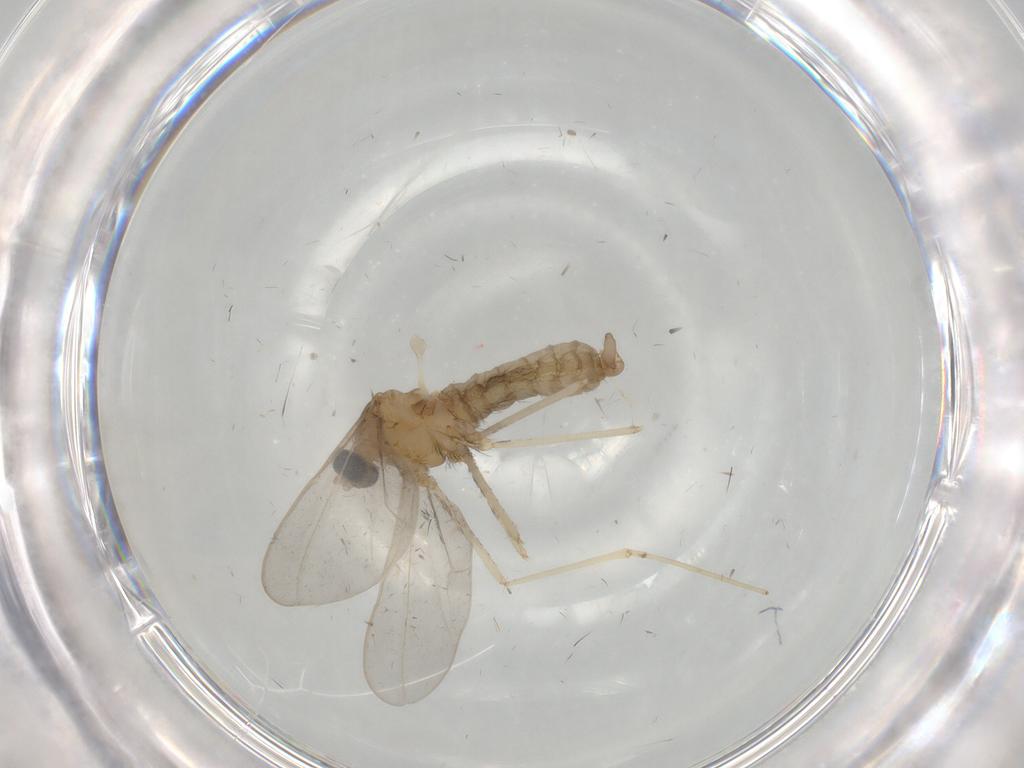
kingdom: Animalia
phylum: Arthropoda
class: Insecta
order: Diptera
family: Cecidomyiidae
